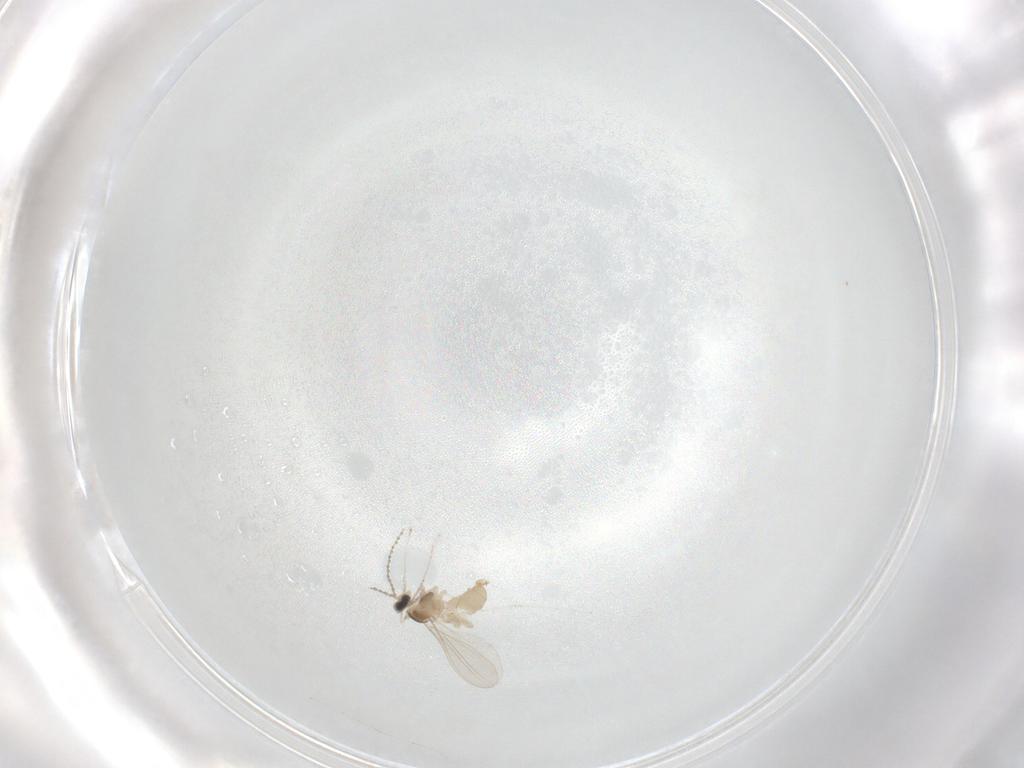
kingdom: Animalia
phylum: Arthropoda
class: Insecta
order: Diptera
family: Cecidomyiidae
